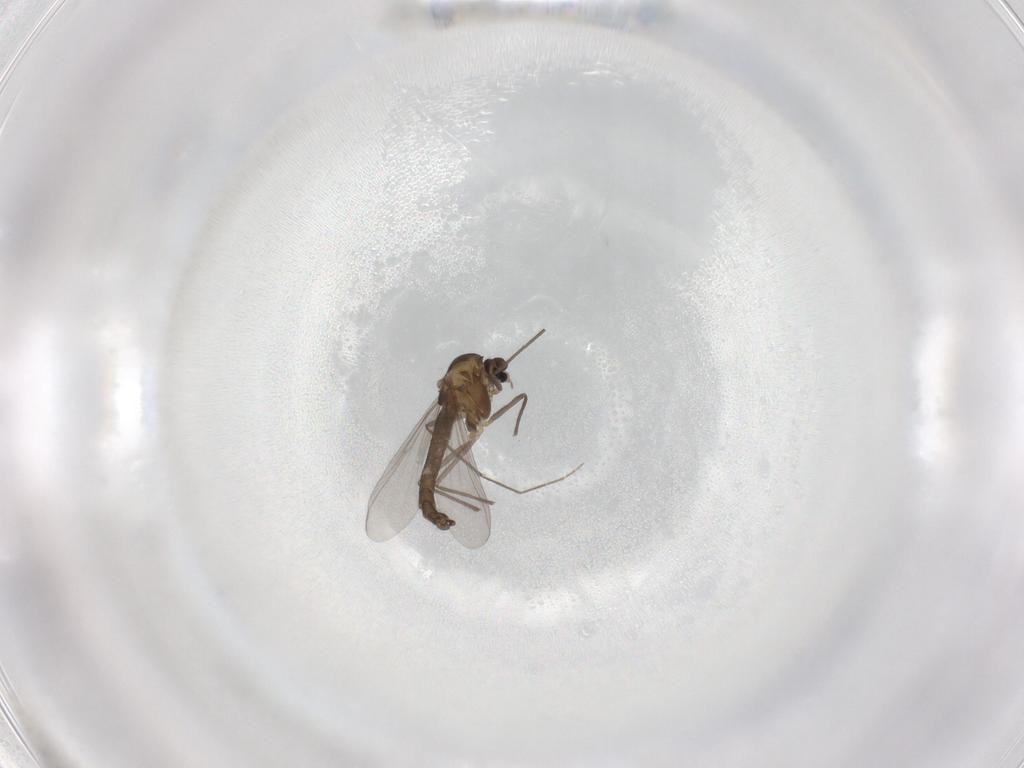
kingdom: Animalia
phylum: Arthropoda
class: Insecta
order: Diptera
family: Chironomidae
